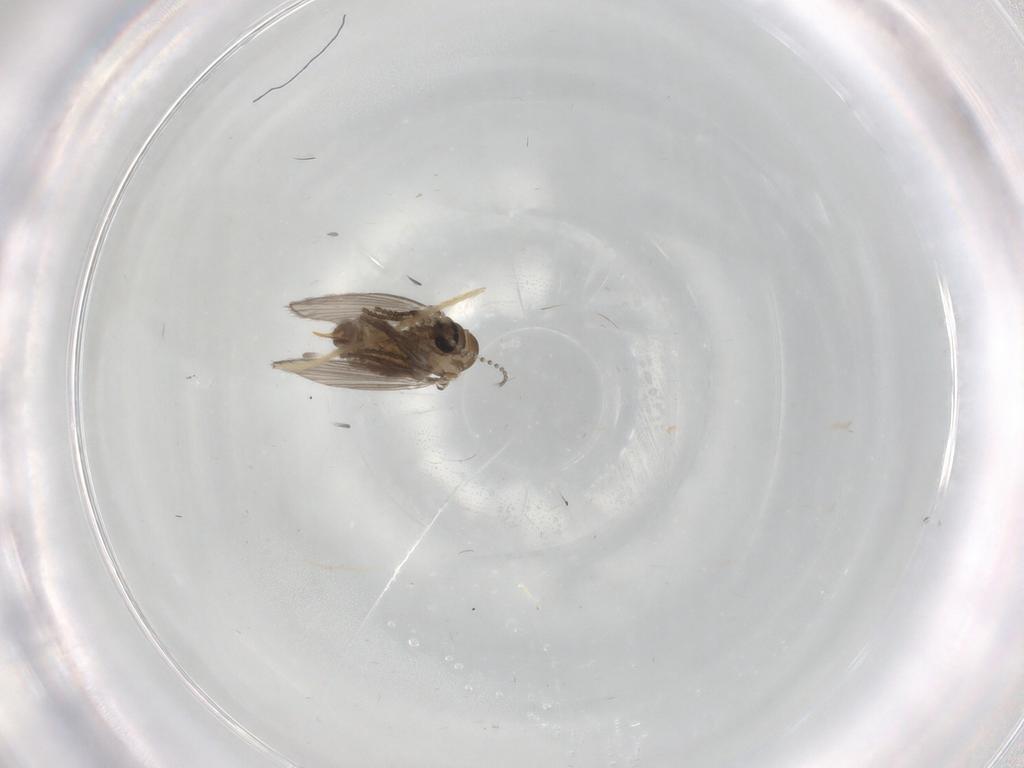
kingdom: Animalia
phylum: Arthropoda
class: Insecta
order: Diptera
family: Psychodidae
